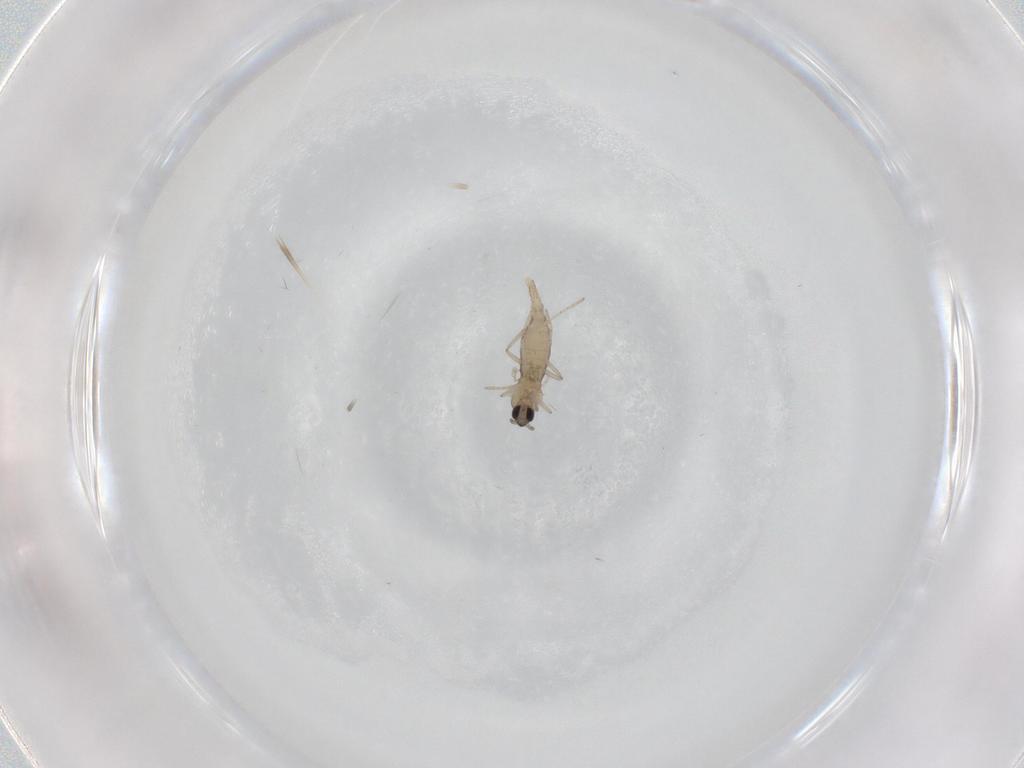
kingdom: Animalia
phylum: Arthropoda
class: Insecta
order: Diptera
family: Cecidomyiidae
